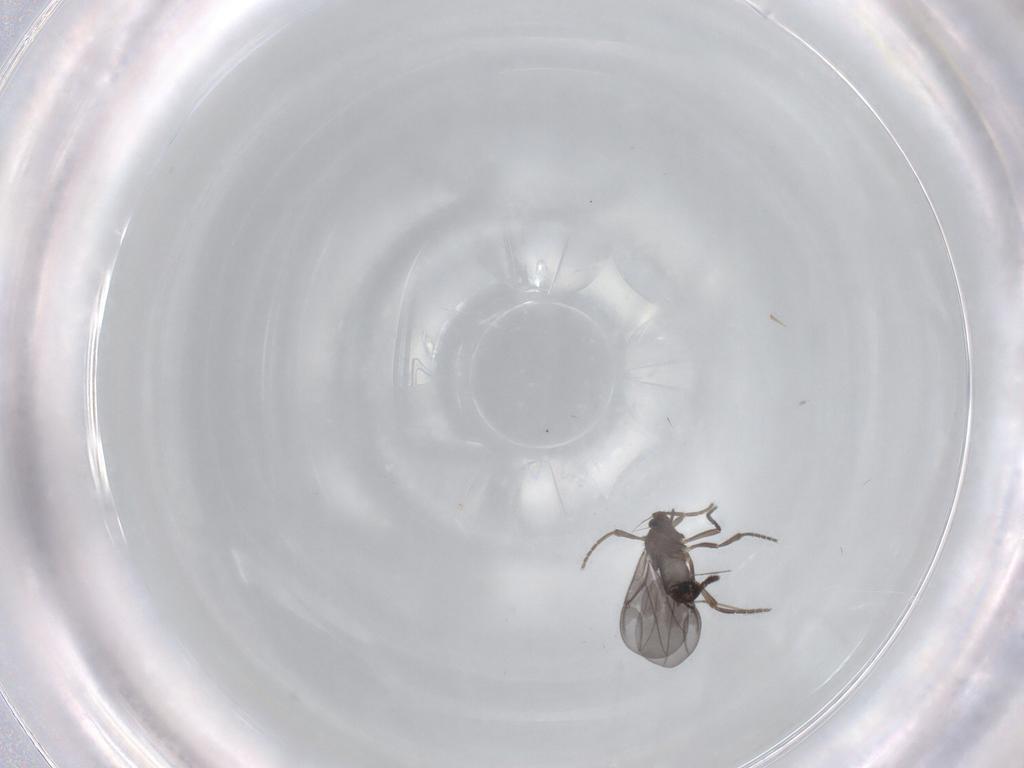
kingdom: Animalia
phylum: Arthropoda
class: Insecta
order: Diptera
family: Phoridae
